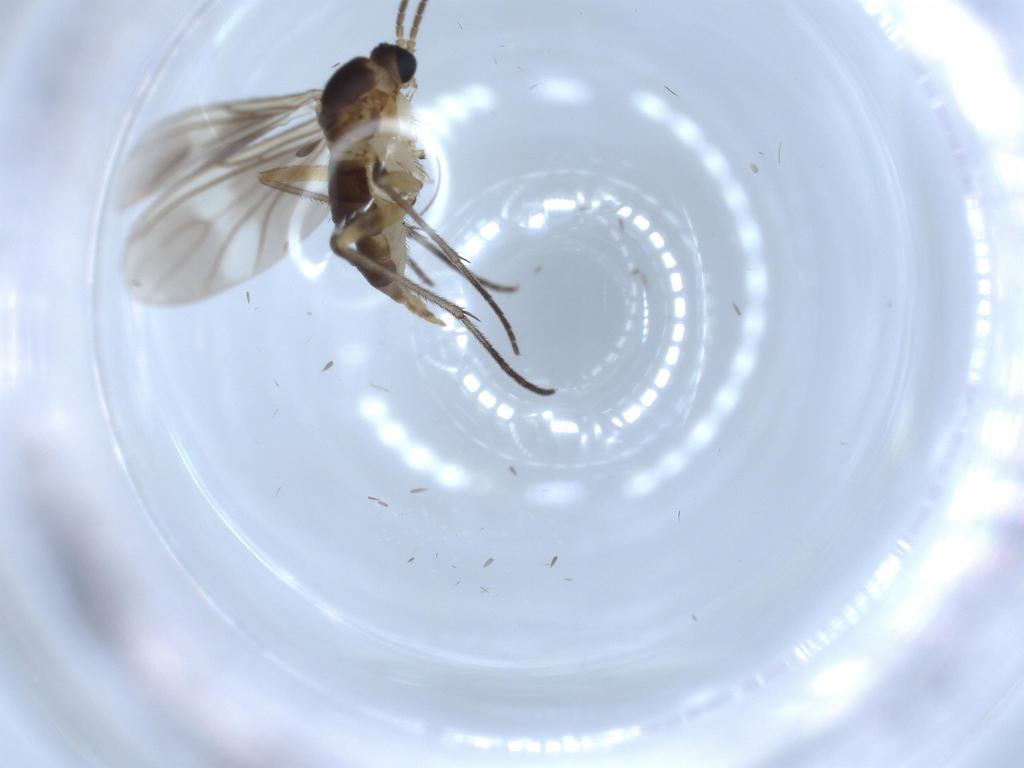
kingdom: Animalia
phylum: Arthropoda
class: Insecta
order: Diptera
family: Sciaridae
